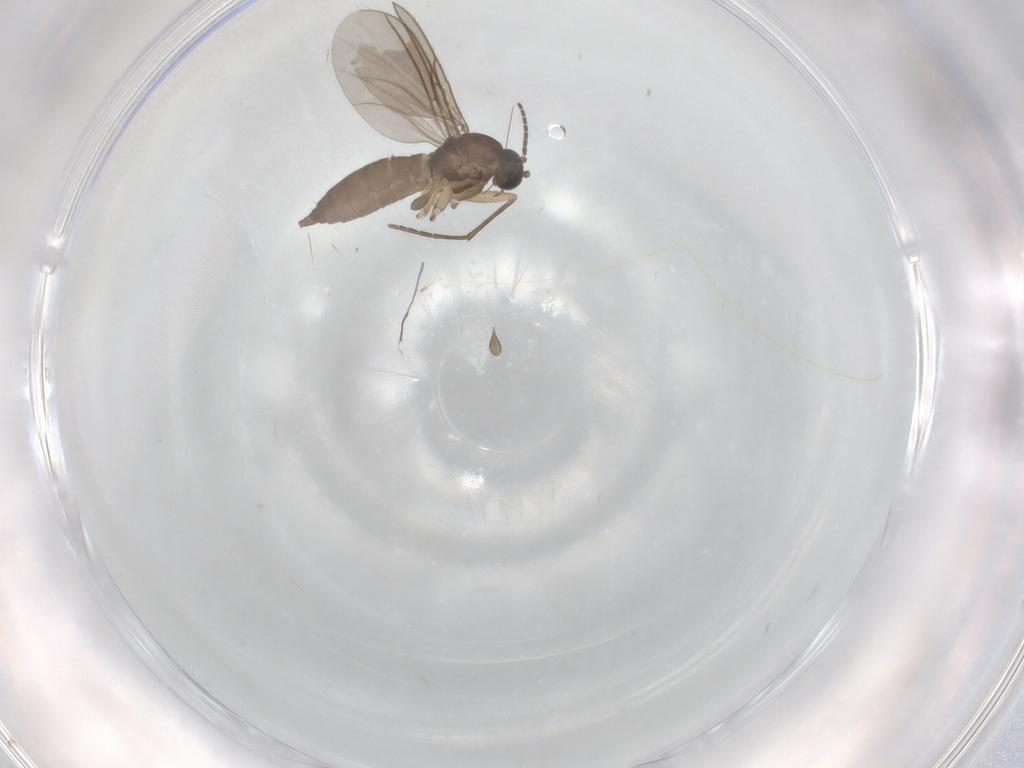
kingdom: Animalia
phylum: Arthropoda
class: Insecta
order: Diptera
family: Sciaridae
